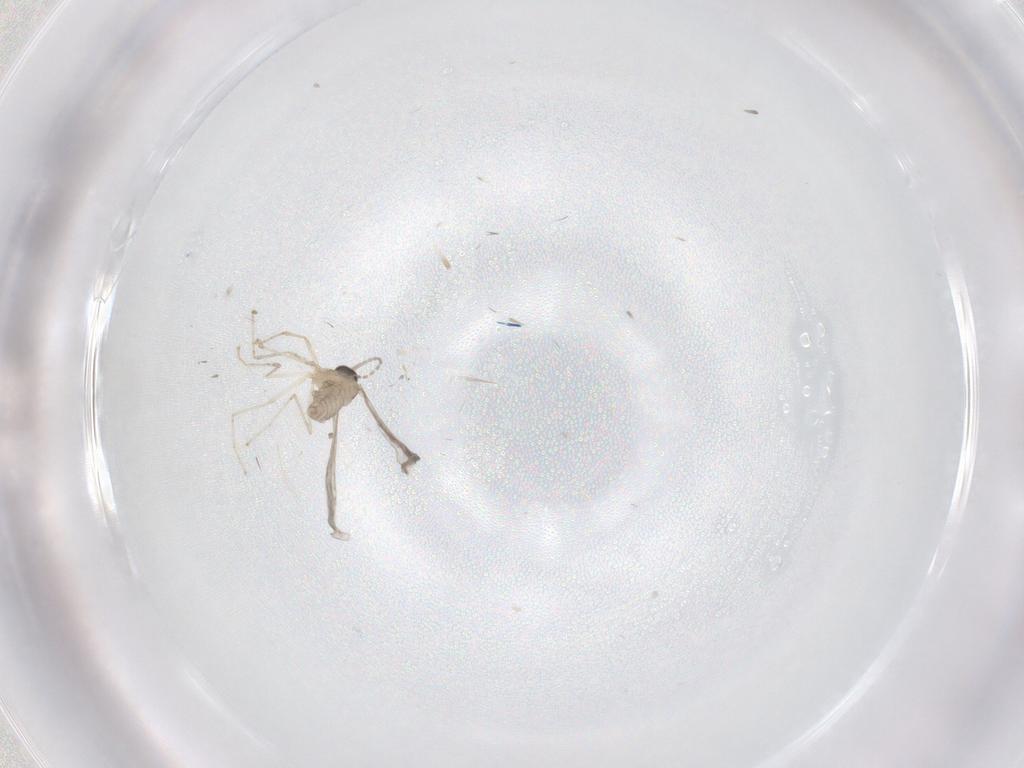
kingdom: Animalia
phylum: Arthropoda
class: Insecta
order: Diptera
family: Cecidomyiidae
